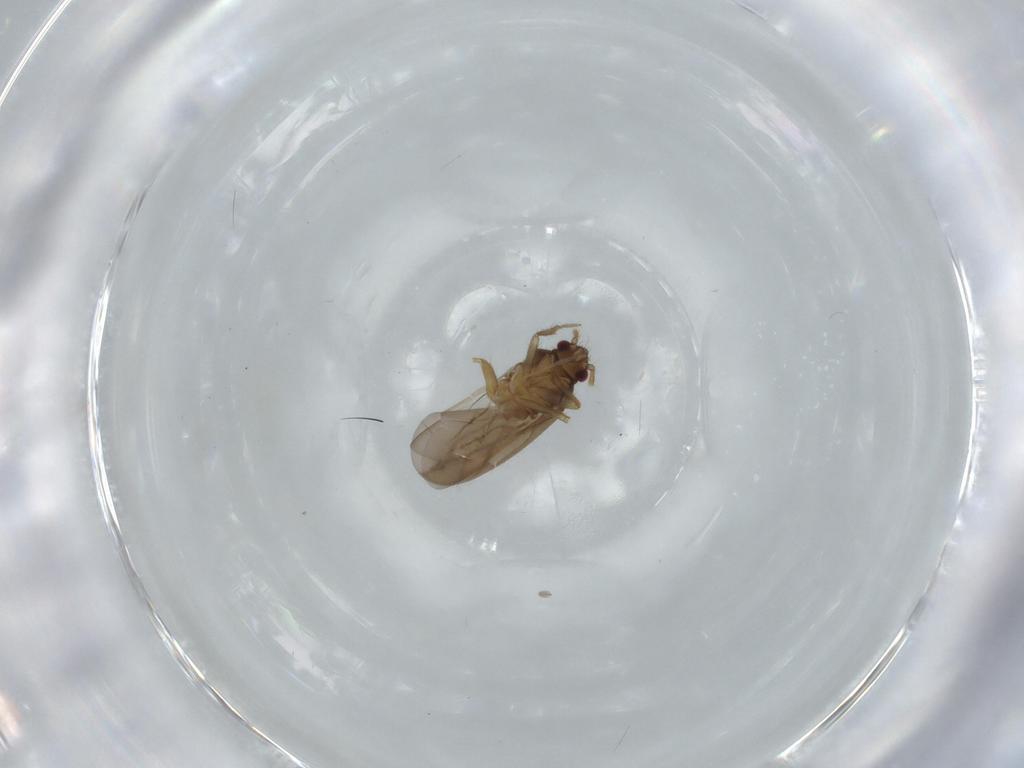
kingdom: Animalia
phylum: Arthropoda
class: Insecta
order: Hemiptera
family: Ceratocombidae
